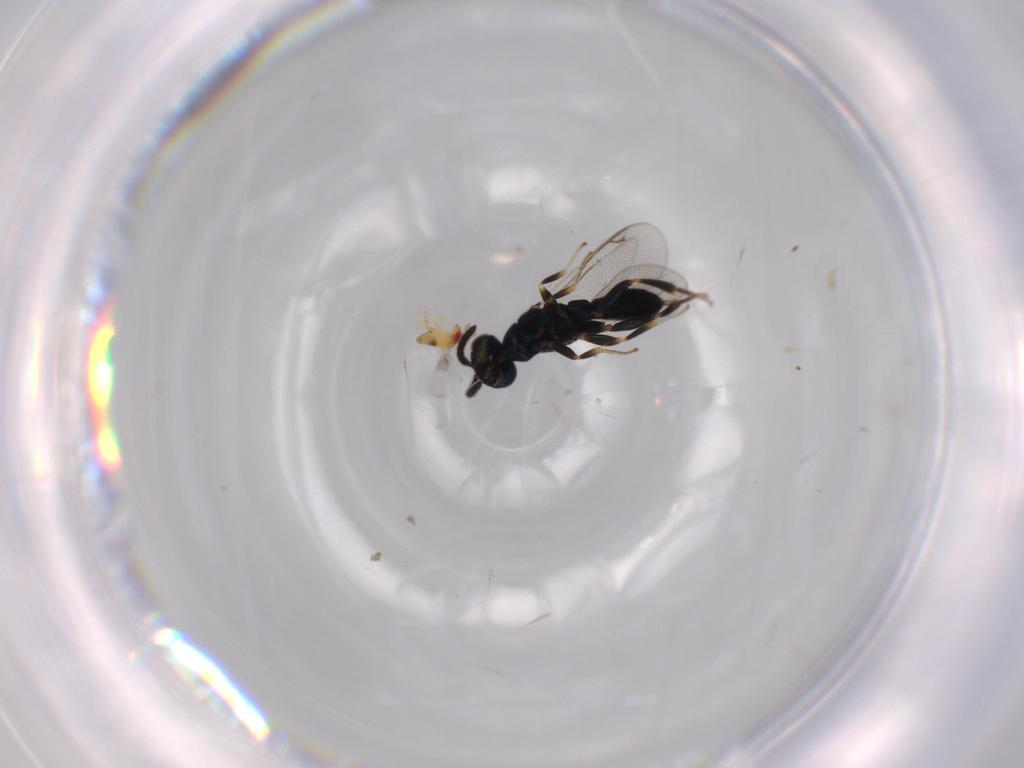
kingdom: Animalia
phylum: Arthropoda
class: Insecta
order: Hymenoptera
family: Trichogrammatidae
